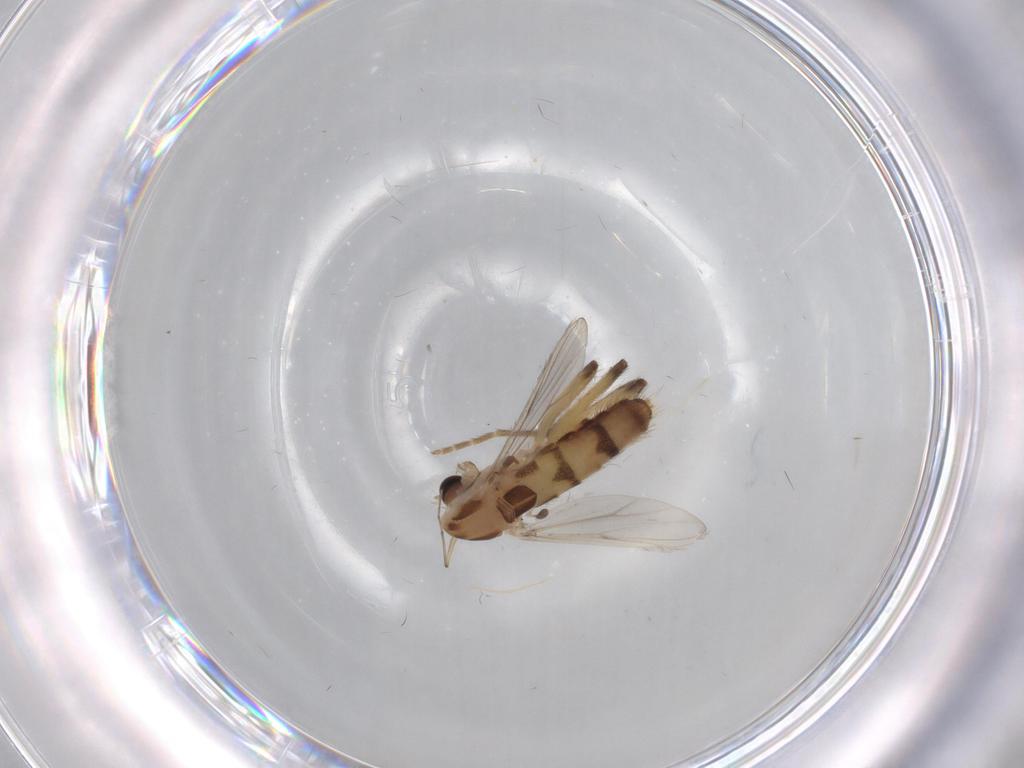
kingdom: Animalia
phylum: Arthropoda
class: Insecta
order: Diptera
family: Chironomidae
